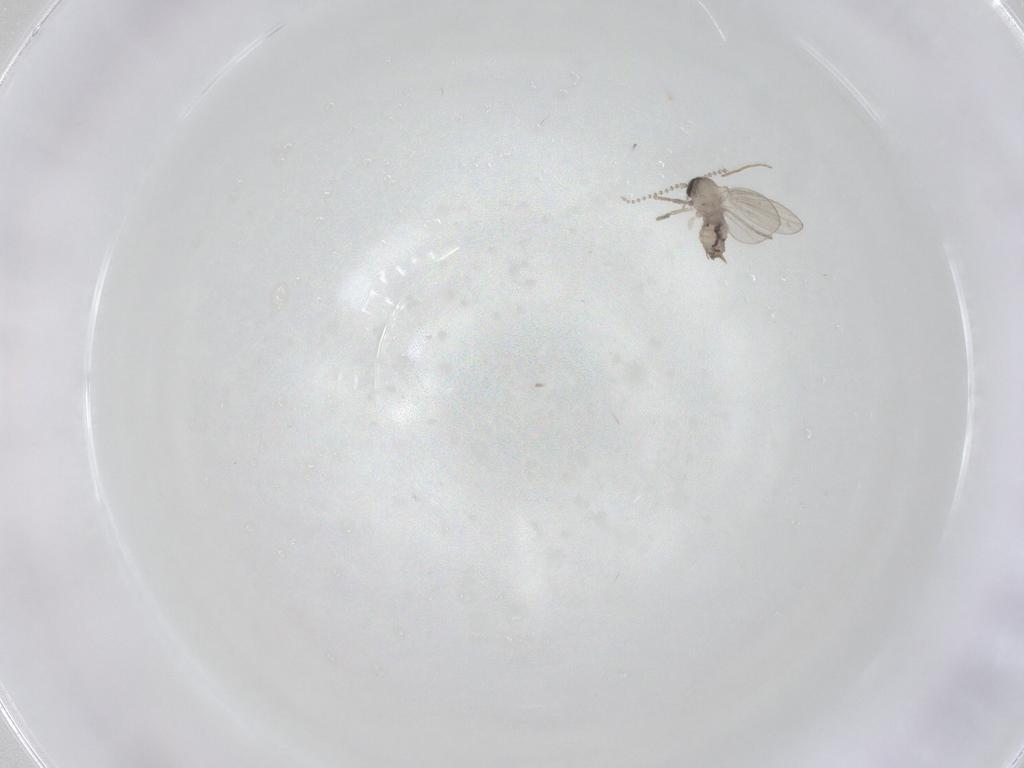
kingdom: Animalia
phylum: Arthropoda
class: Insecta
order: Diptera
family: Psychodidae
